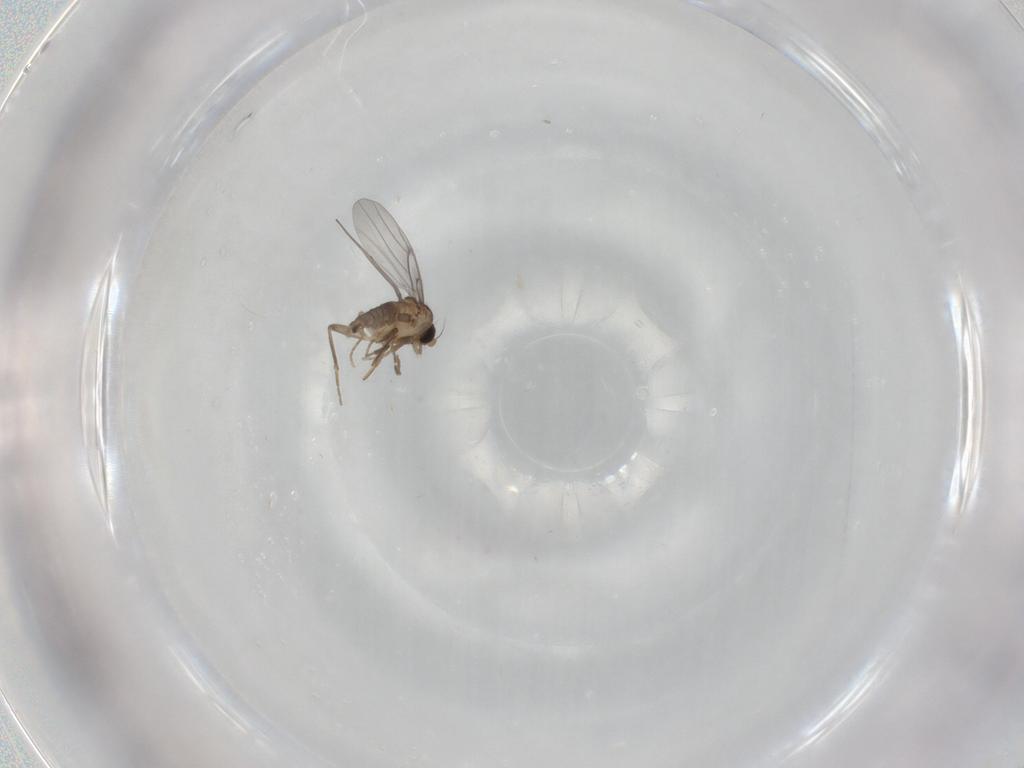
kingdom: Animalia
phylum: Arthropoda
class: Insecta
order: Diptera
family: Phoridae
